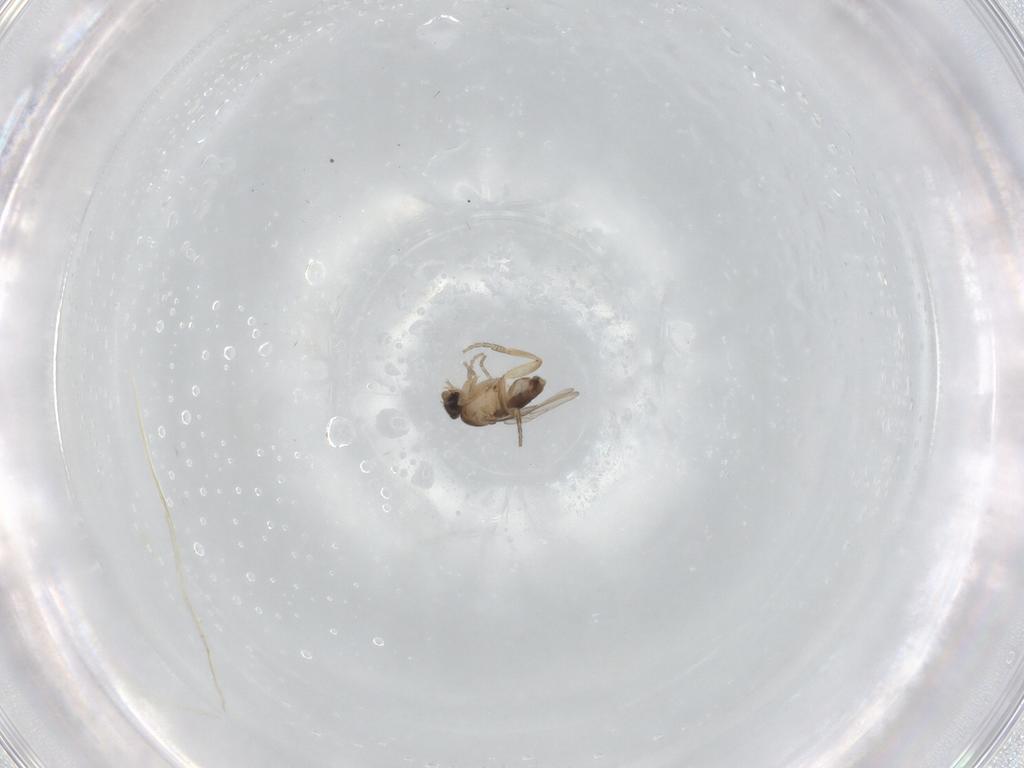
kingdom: Animalia
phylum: Arthropoda
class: Insecta
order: Diptera
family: Phoridae
